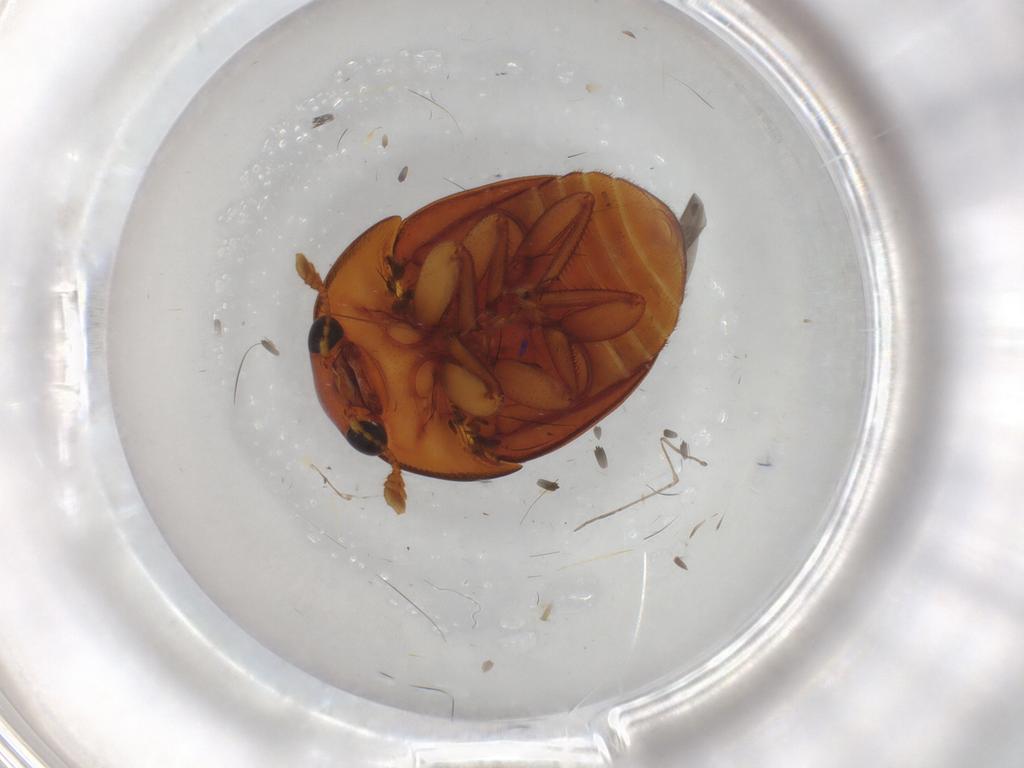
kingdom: Animalia
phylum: Arthropoda
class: Insecta
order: Coleoptera
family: Nitidulidae
